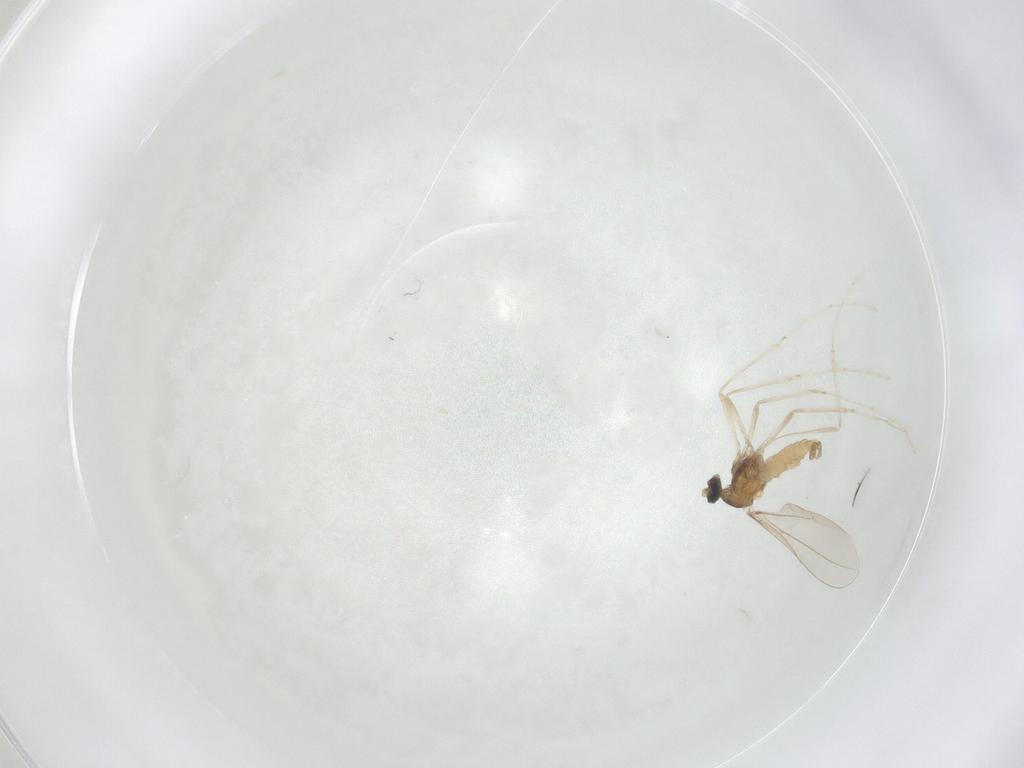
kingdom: Animalia
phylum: Arthropoda
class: Insecta
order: Diptera
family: Cecidomyiidae
